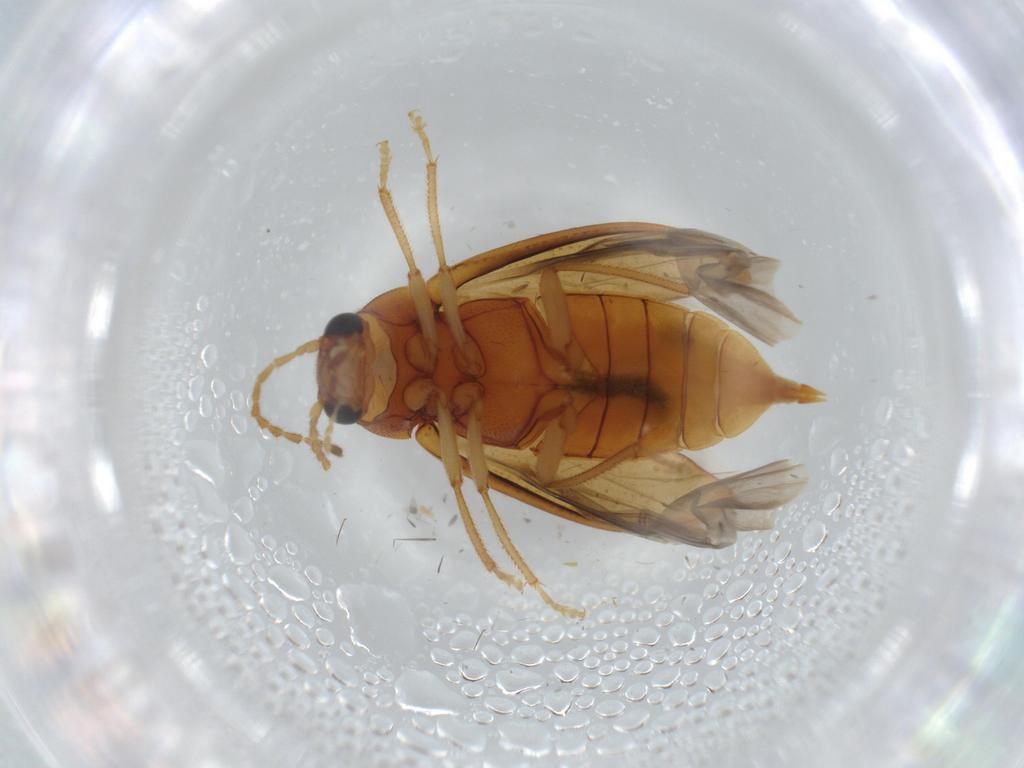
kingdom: Animalia
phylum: Arthropoda
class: Insecta
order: Coleoptera
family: Ptilodactylidae
